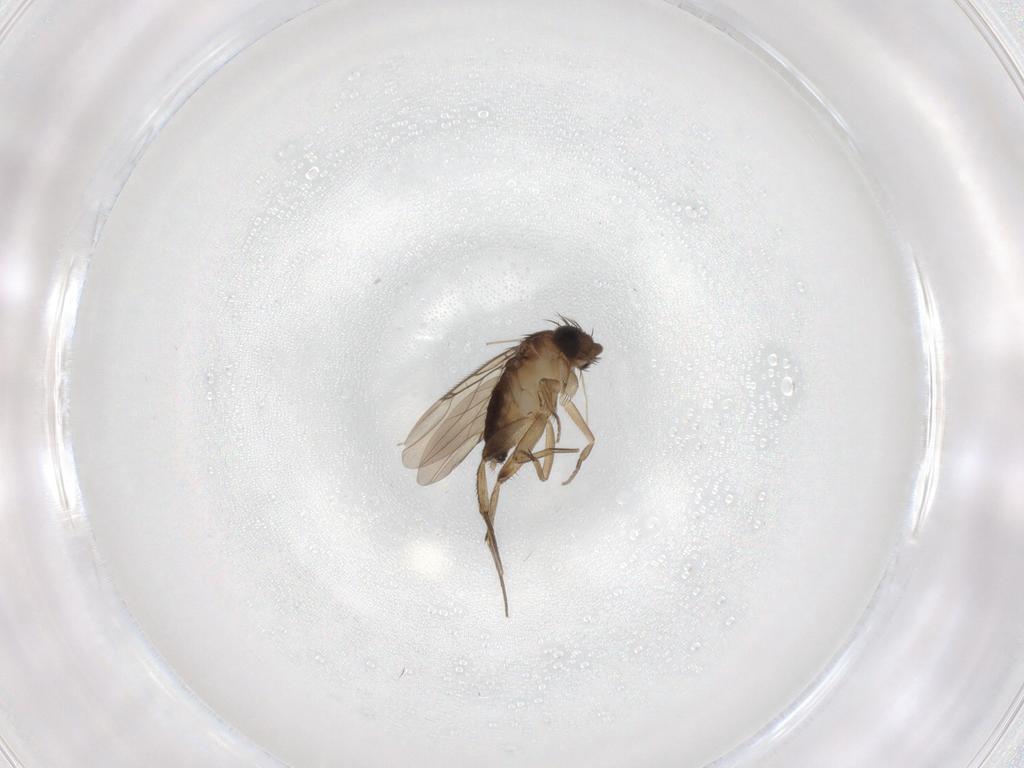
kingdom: Animalia
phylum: Arthropoda
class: Insecta
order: Diptera
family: Phoridae
